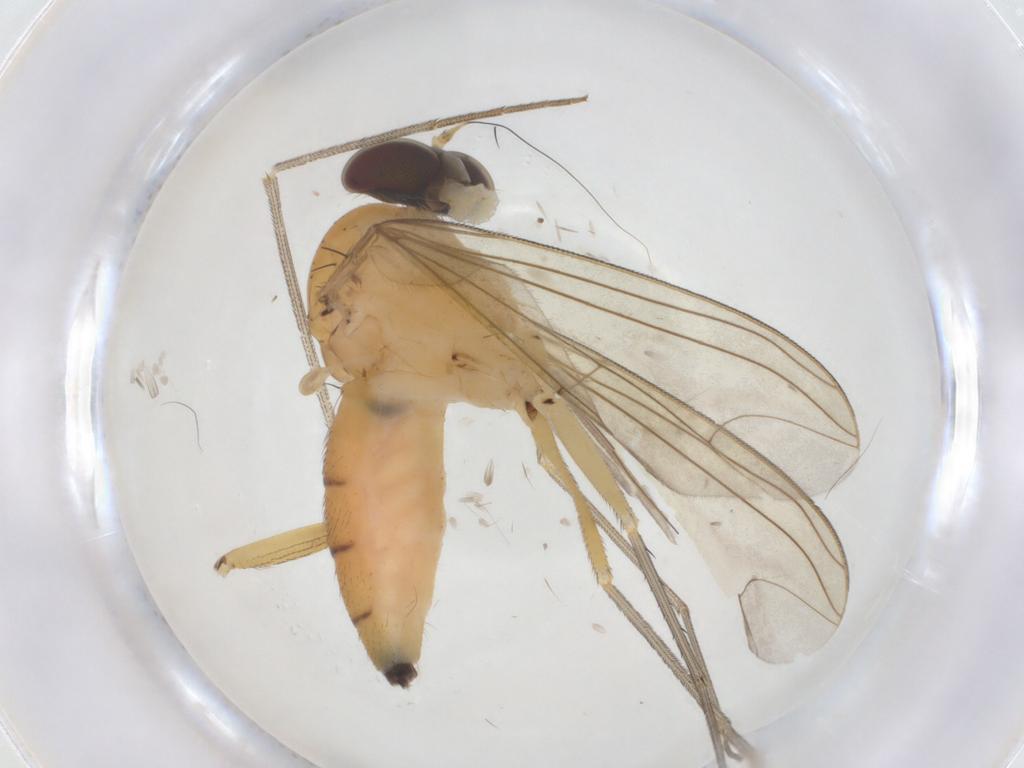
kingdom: Animalia
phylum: Arthropoda
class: Insecta
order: Diptera
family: Dolichopodidae
